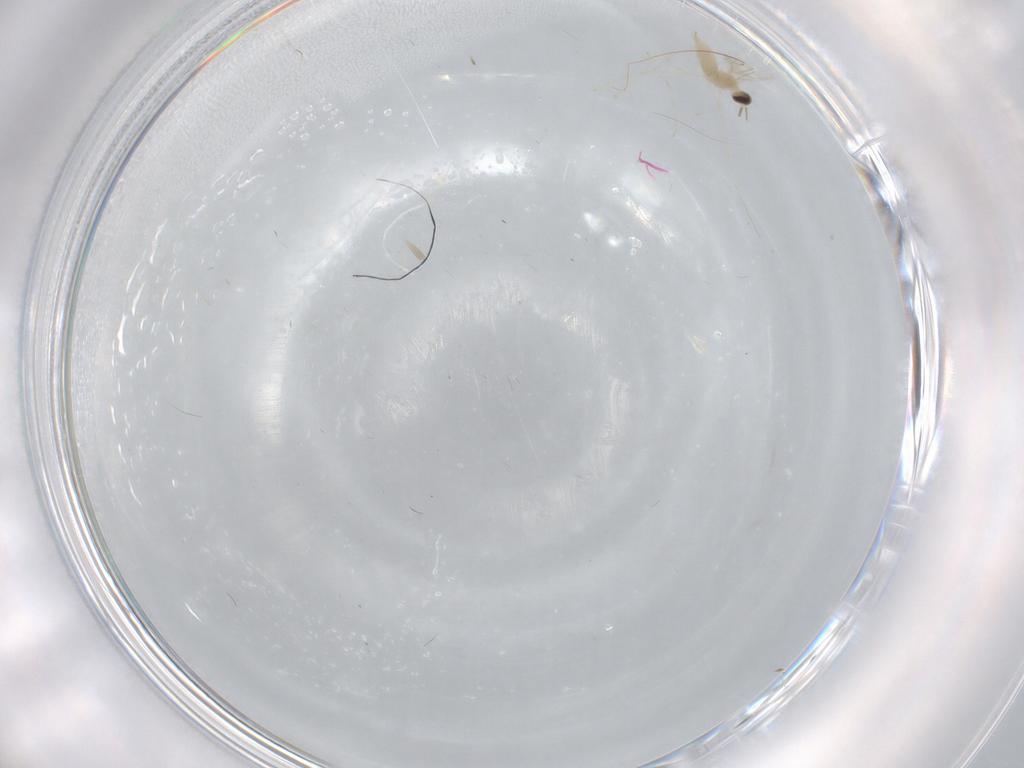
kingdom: Animalia
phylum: Arthropoda
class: Insecta
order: Diptera
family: Cecidomyiidae
